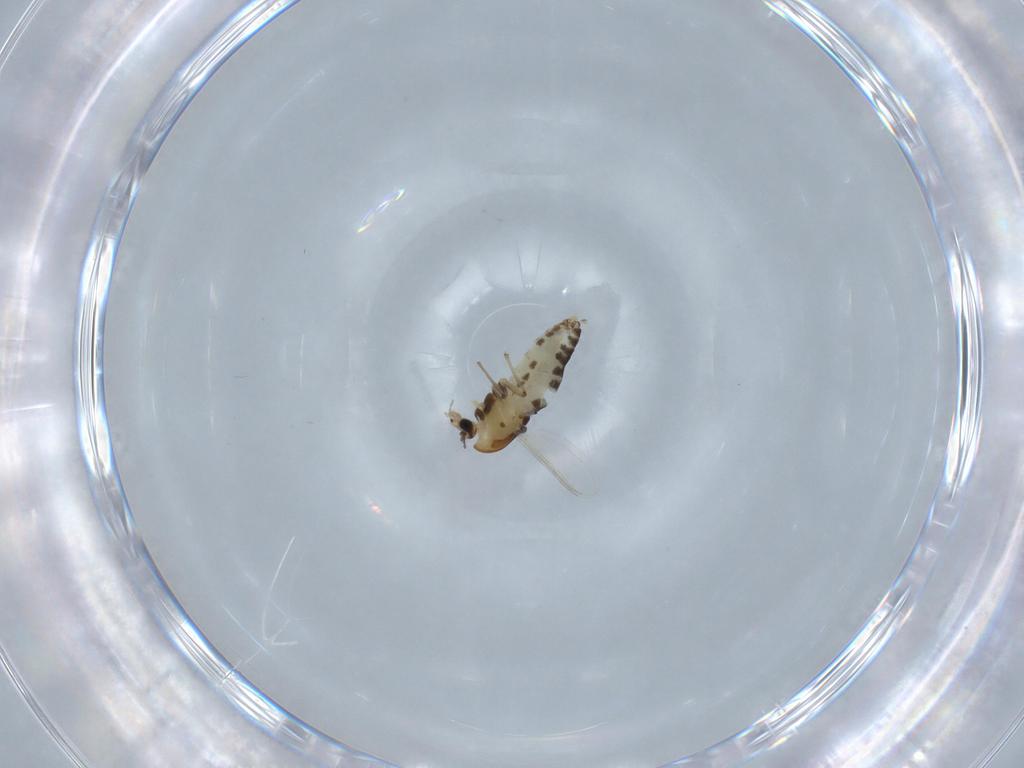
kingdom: Animalia
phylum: Arthropoda
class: Insecta
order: Diptera
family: Chironomidae
